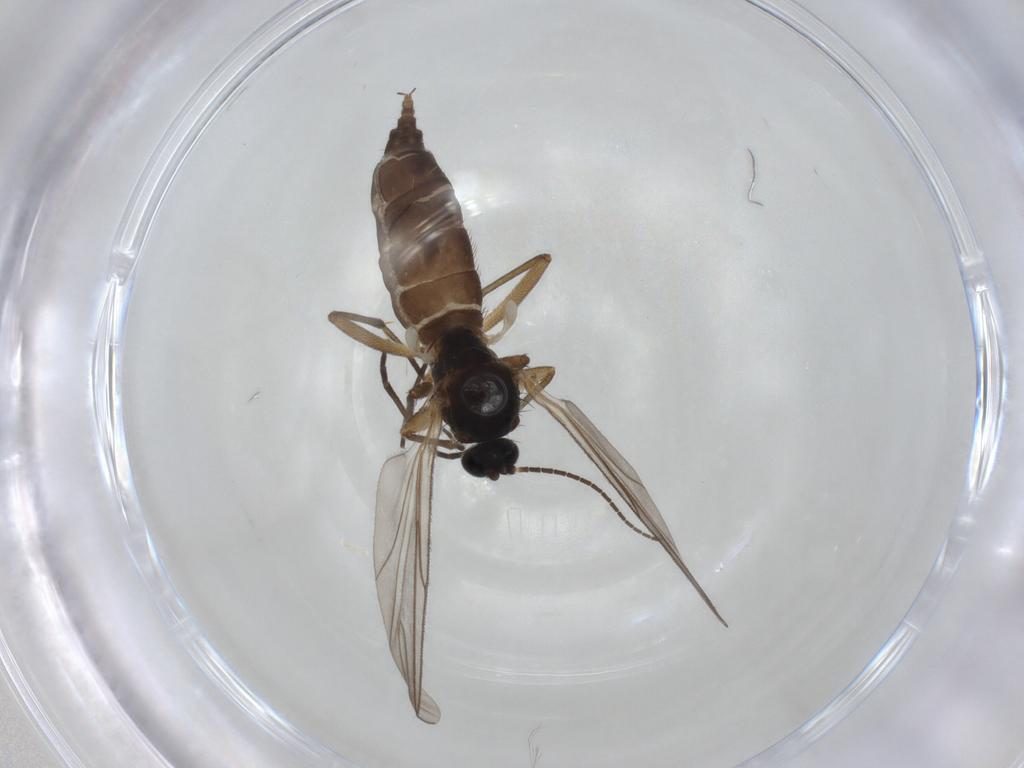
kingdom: Animalia
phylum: Arthropoda
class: Insecta
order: Diptera
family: Sciaridae
